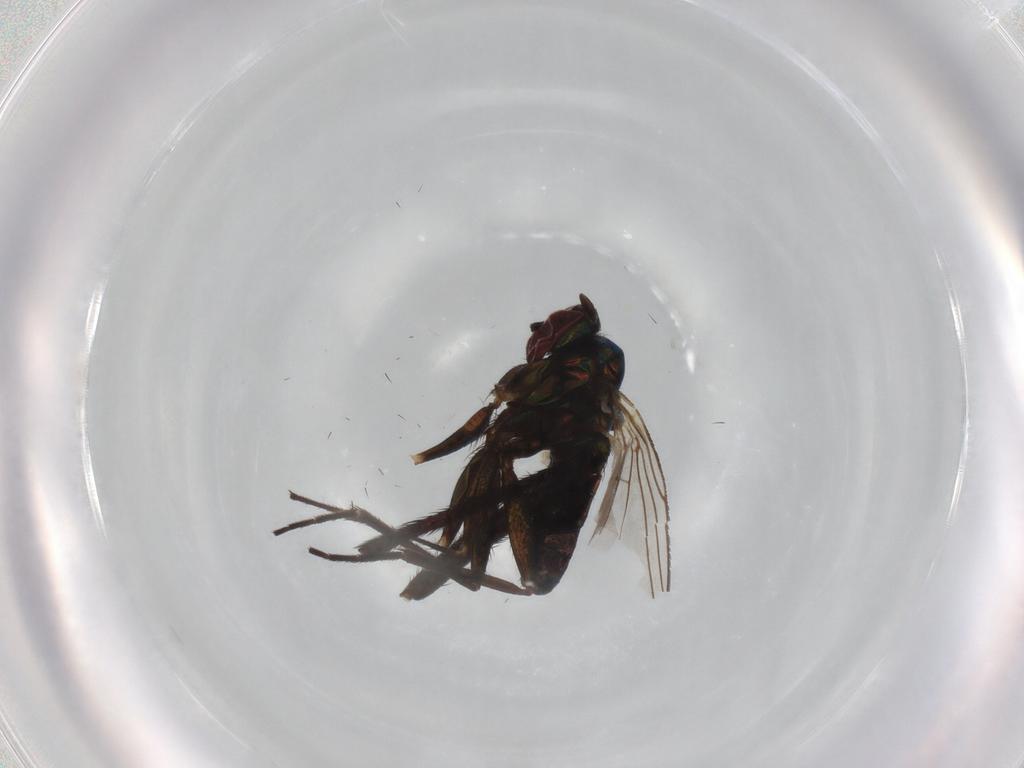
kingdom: Animalia
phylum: Arthropoda
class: Insecta
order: Diptera
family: Dolichopodidae
